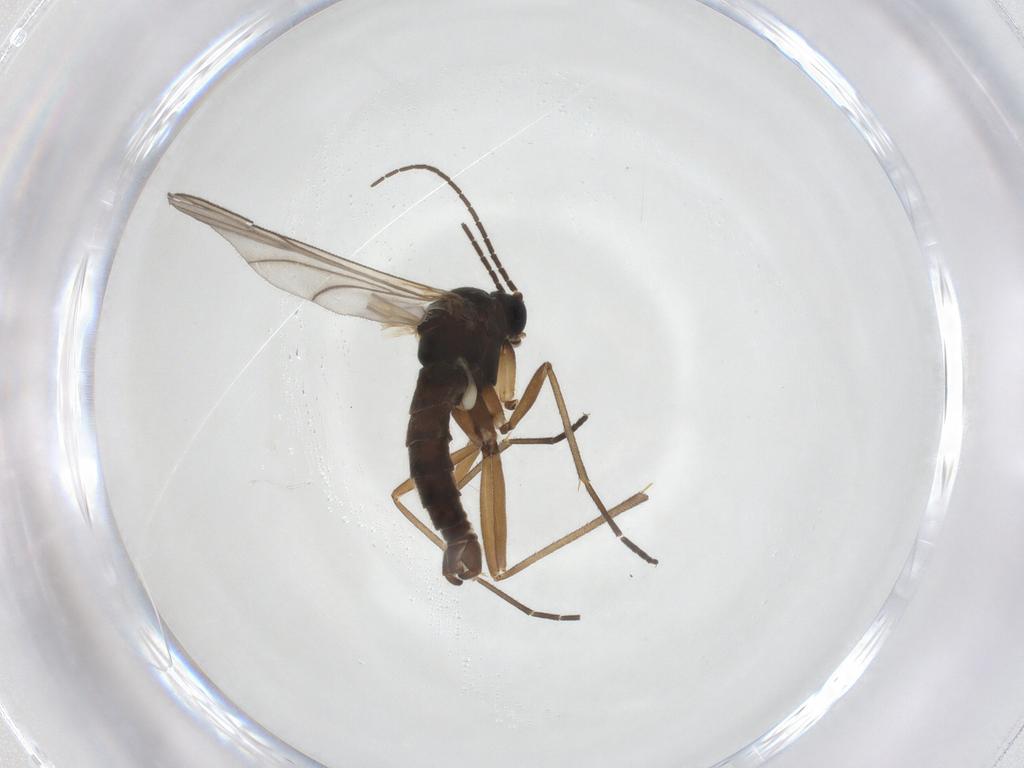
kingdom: Animalia
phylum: Arthropoda
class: Insecta
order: Diptera
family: Sciaridae
